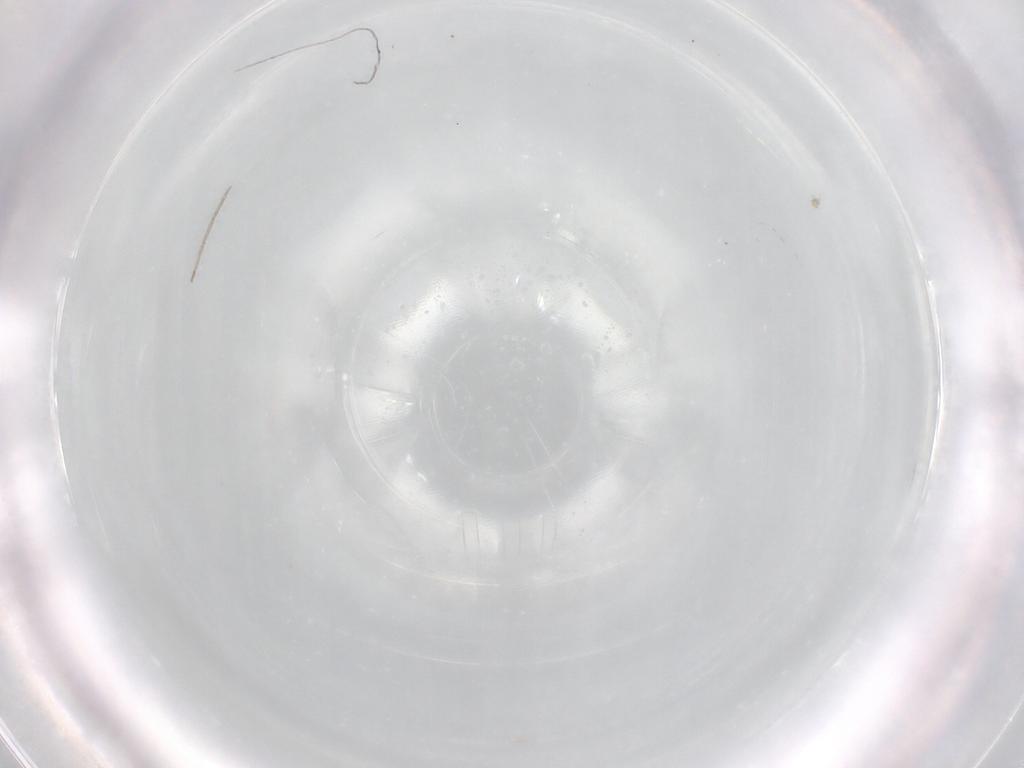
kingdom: Animalia
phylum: Arthropoda
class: Insecta
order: Diptera
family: Cecidomyiidae
